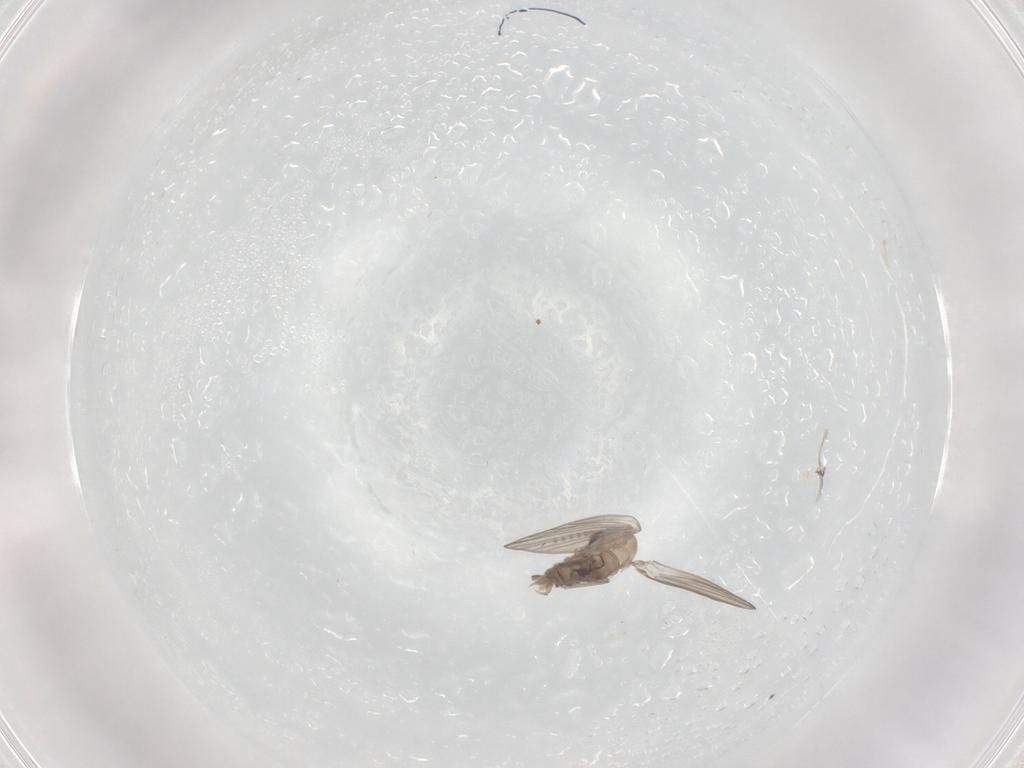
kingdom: Animalia
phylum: Arthropoda
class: Insecta
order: Diptera
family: Psychodidae
